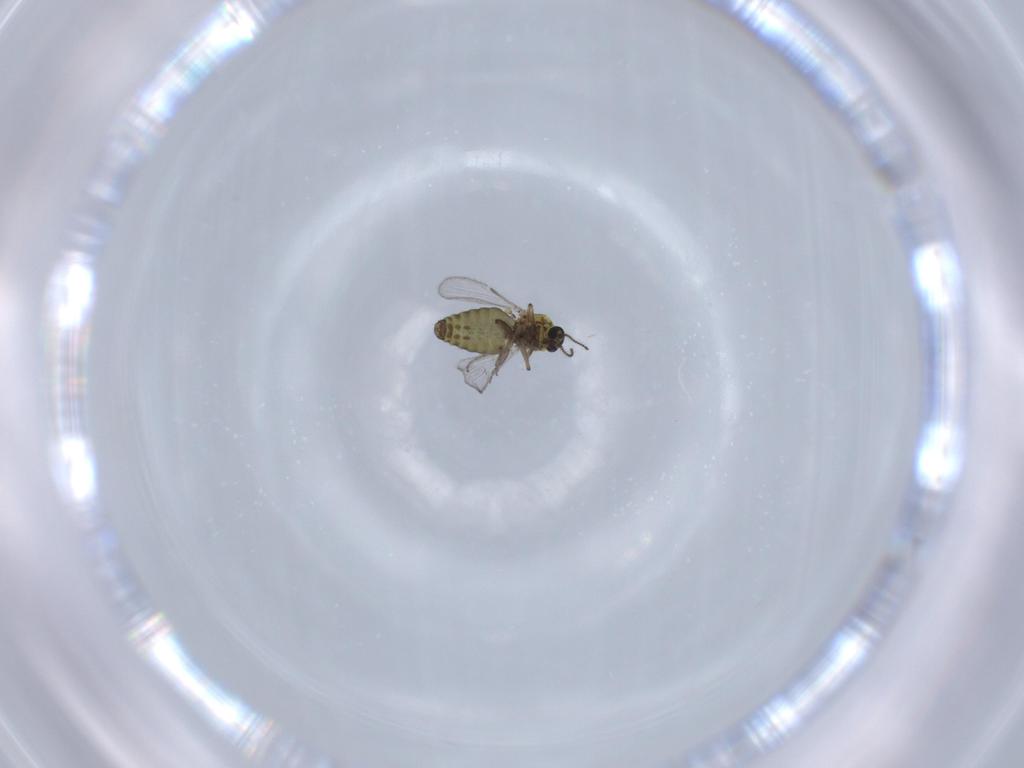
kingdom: Animalia
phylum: Arthropoda
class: Insecta
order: Diptera
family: Ceratopogonidae
